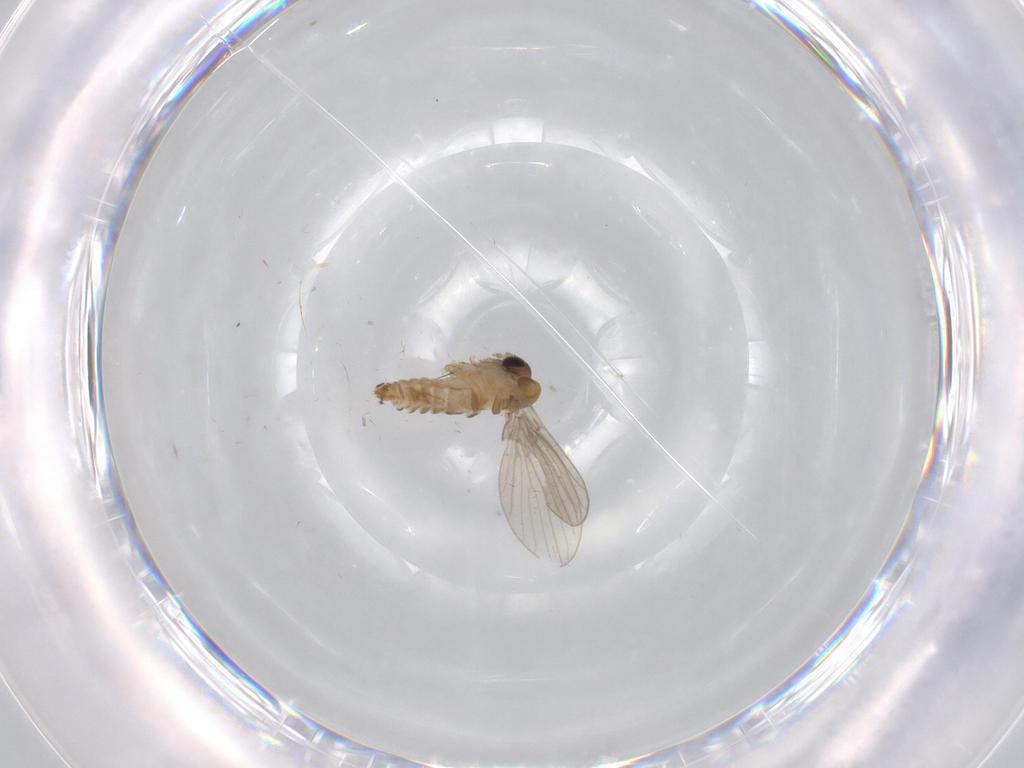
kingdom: Animalia
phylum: Arthropoda
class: Insecta
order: Diptera
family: Psychodidae
